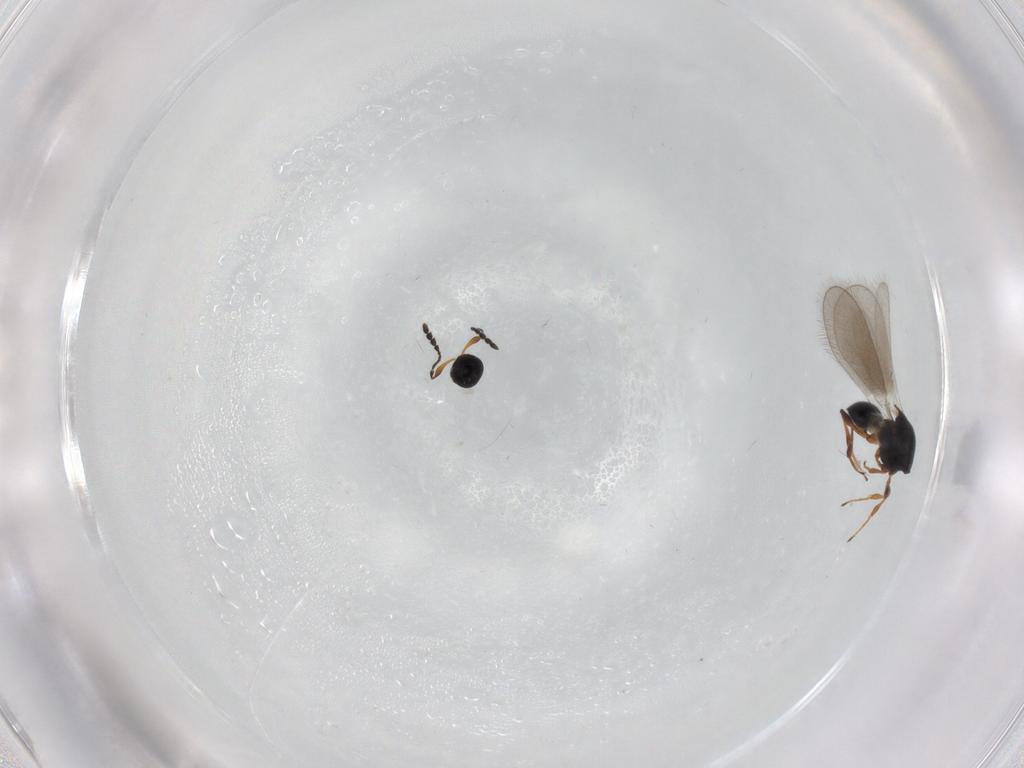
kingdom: Animalia
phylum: Arthropoda
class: Insecta
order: Hymenoptera
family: Platygastridae
